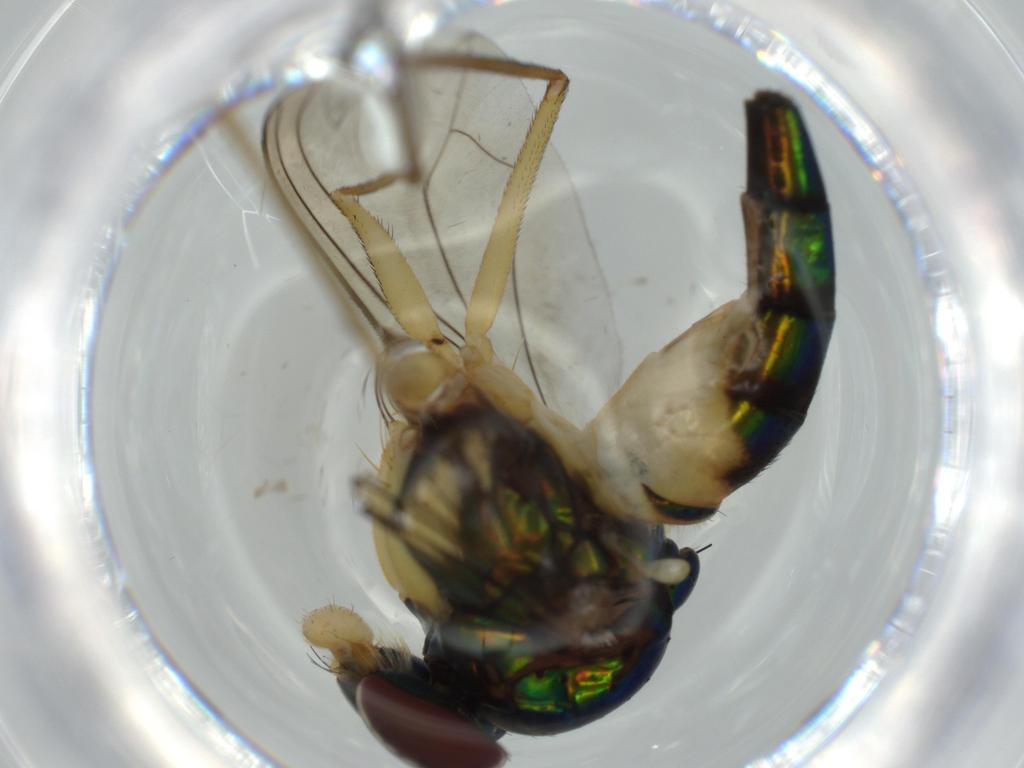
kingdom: Animalia
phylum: Arthropoda
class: Insecta
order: Diptera
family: Dolichopodidae
